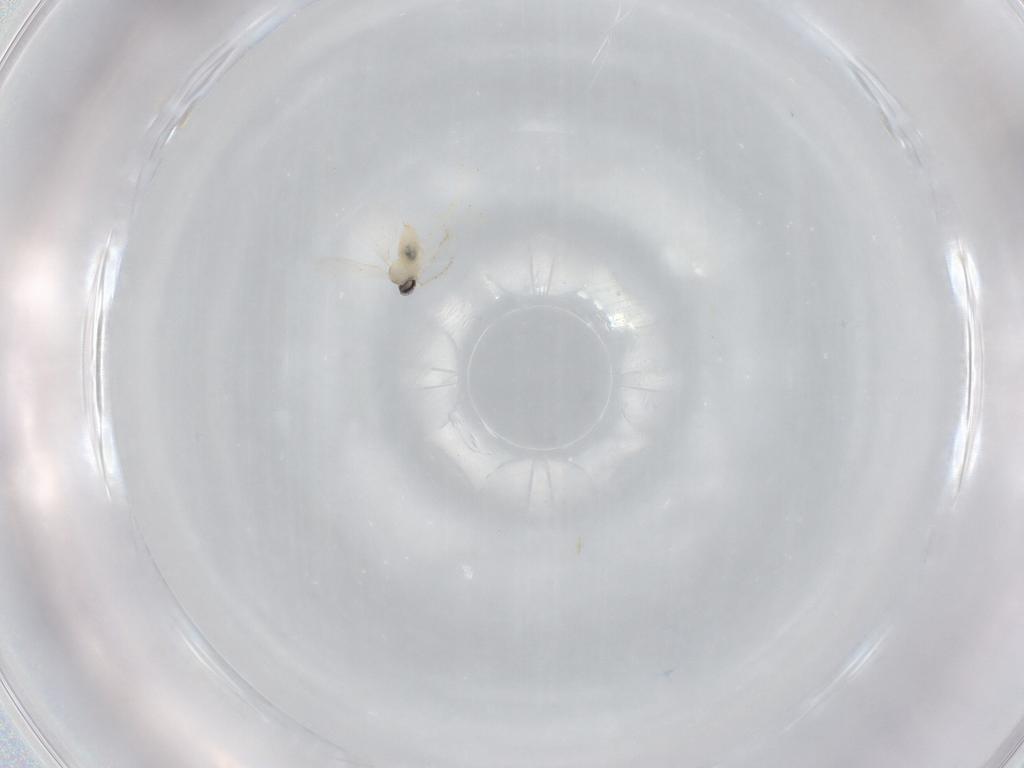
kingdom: Animalia
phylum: Arthropoda
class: Insecta
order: Diptera
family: Cecidomyiidae
